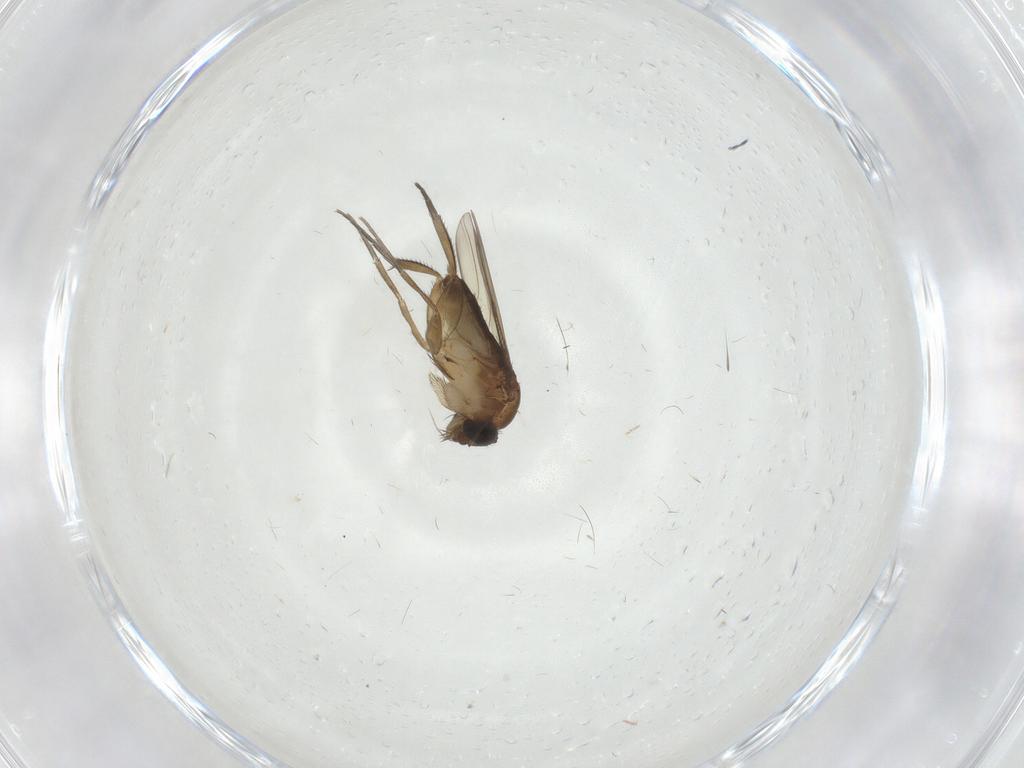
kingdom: Animalia
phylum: Arthropoda
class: Insecta
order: Diptera
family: Phoridae
